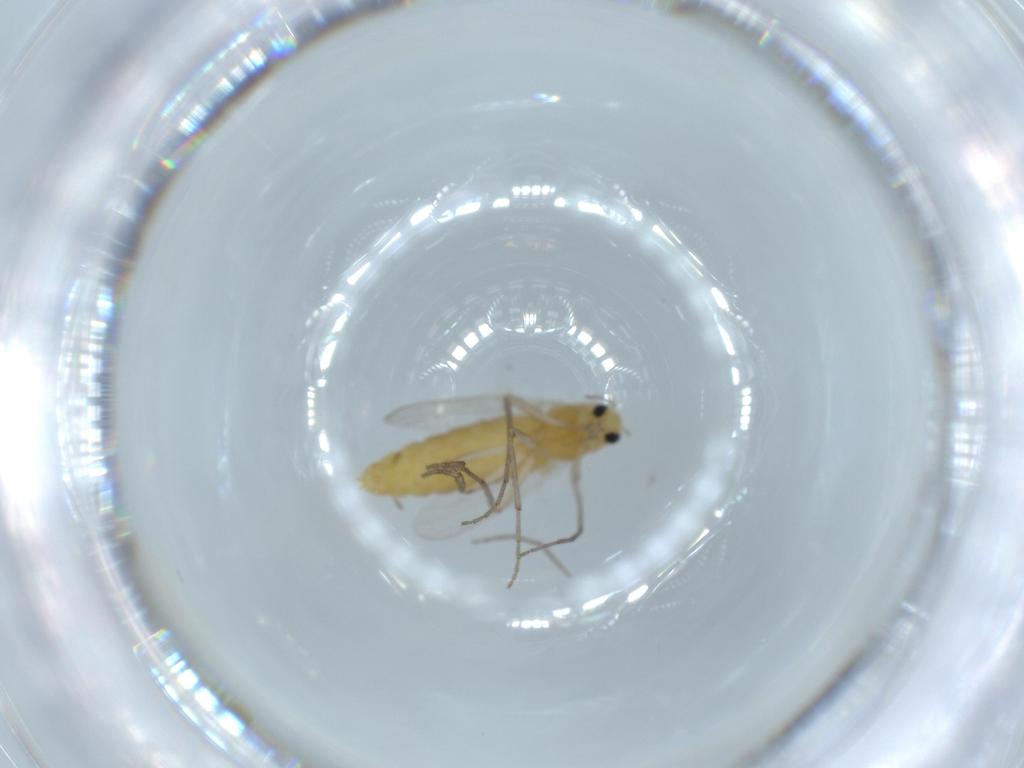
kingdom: Animalia
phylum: Arthropoda
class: Insecta
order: Diptera
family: Chironomidae
